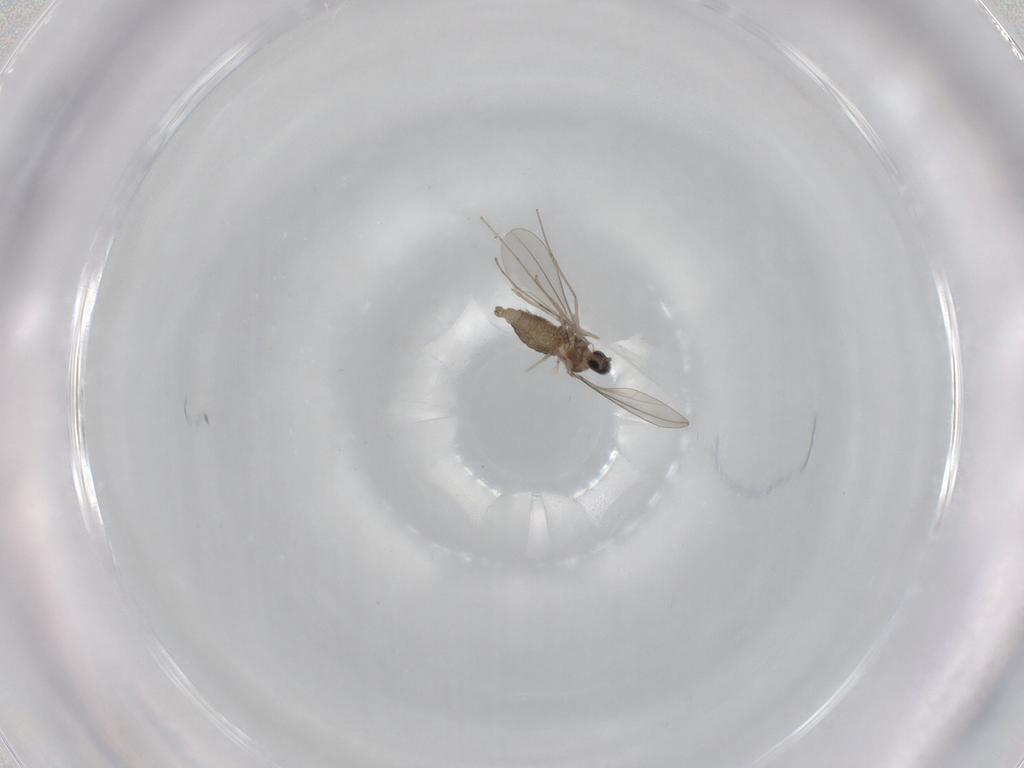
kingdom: Animalia
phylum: Arthropoda
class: Insecta
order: Diptera
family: Cecidomyiidae
